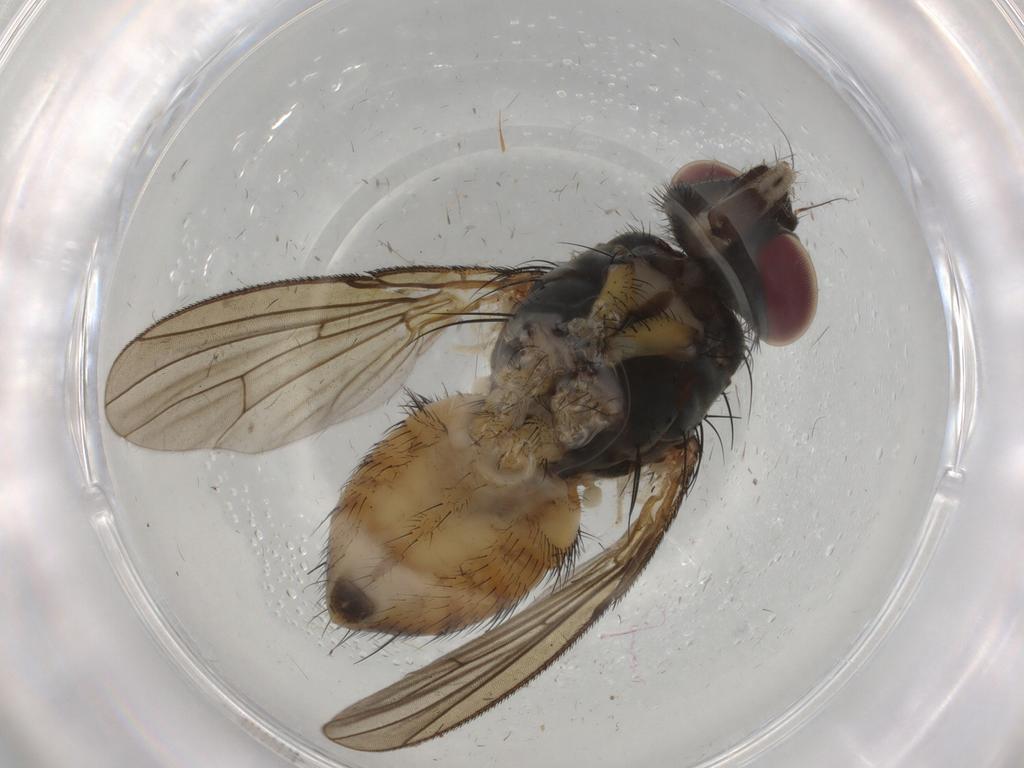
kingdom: Animalia
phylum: Arthropoda
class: Insecta
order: Diptera
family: Muscidae
